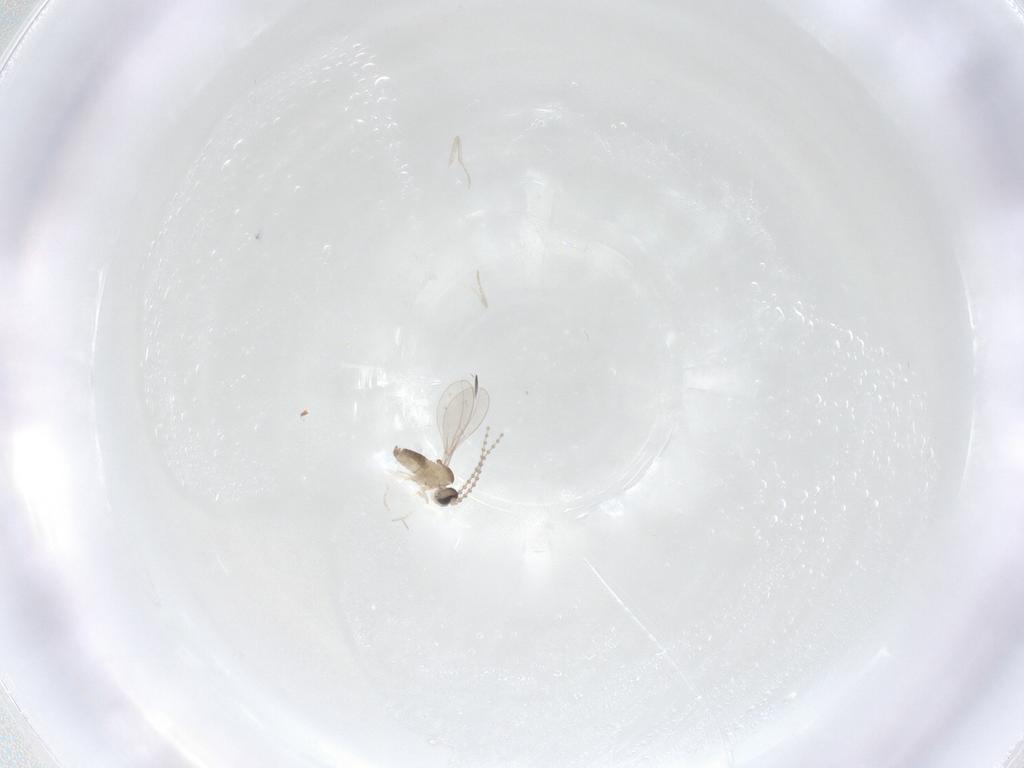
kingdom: Animalia
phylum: Arthropoda
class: Insecta
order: Diptera
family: Cecidomyiidae
